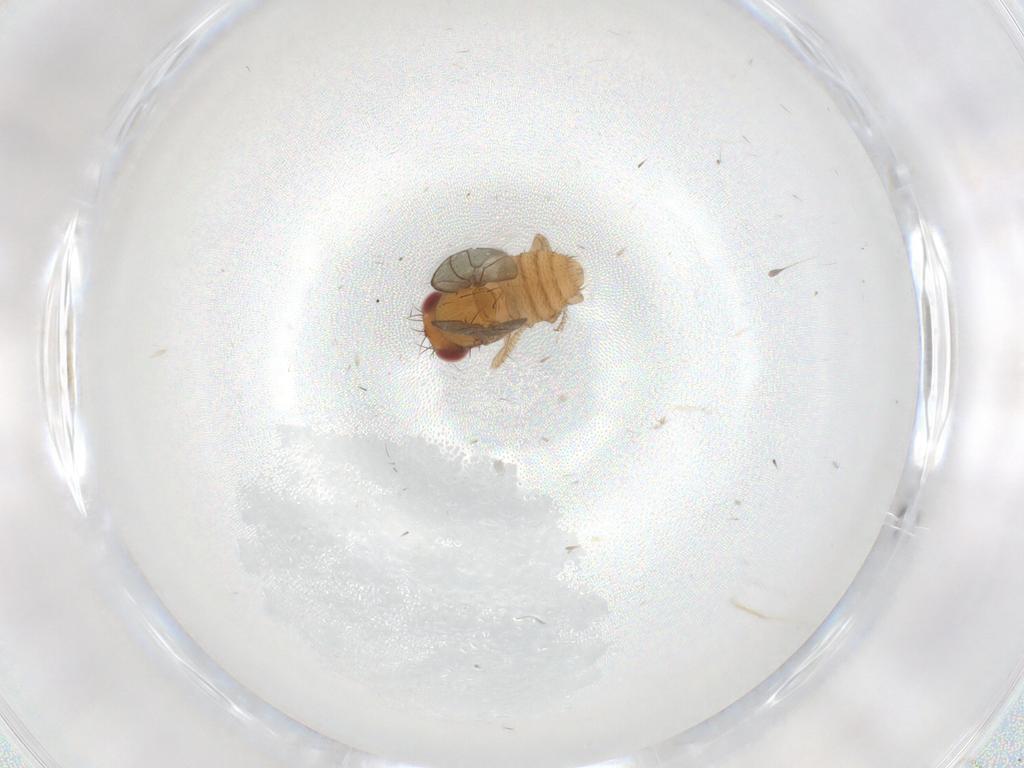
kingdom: Animalia
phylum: Arthropoda
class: Insecta
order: Diptera
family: Drosophilidae
